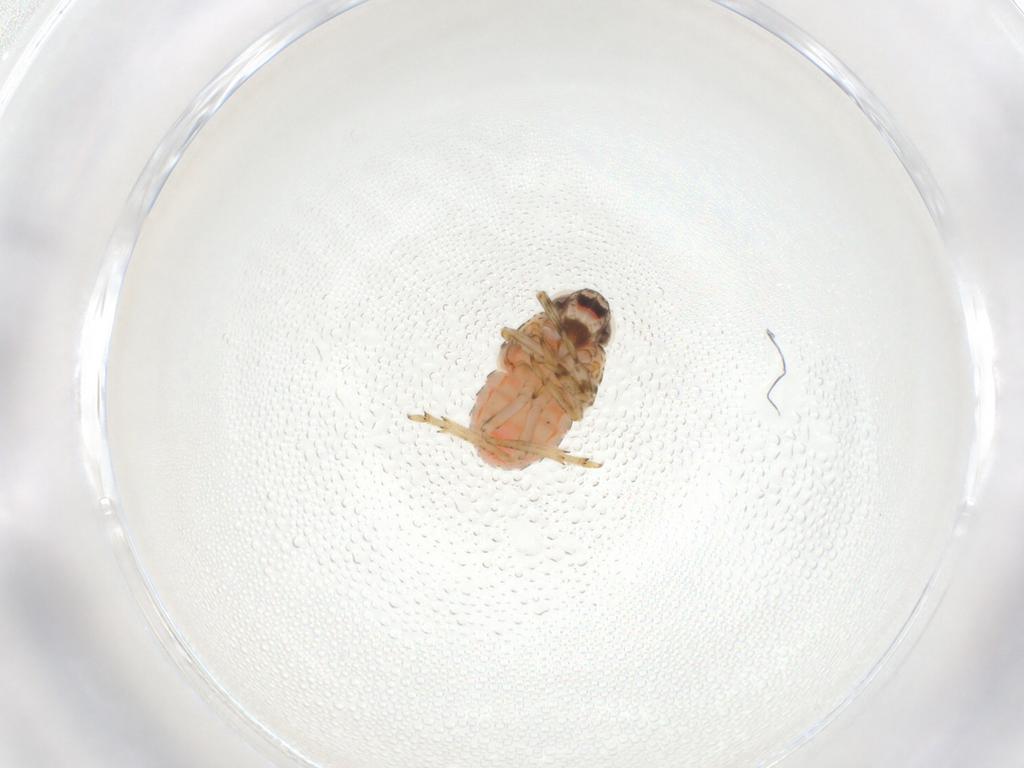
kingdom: Animalia
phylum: Arthropoda
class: Insecta
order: Hemiptera
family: Issidae
